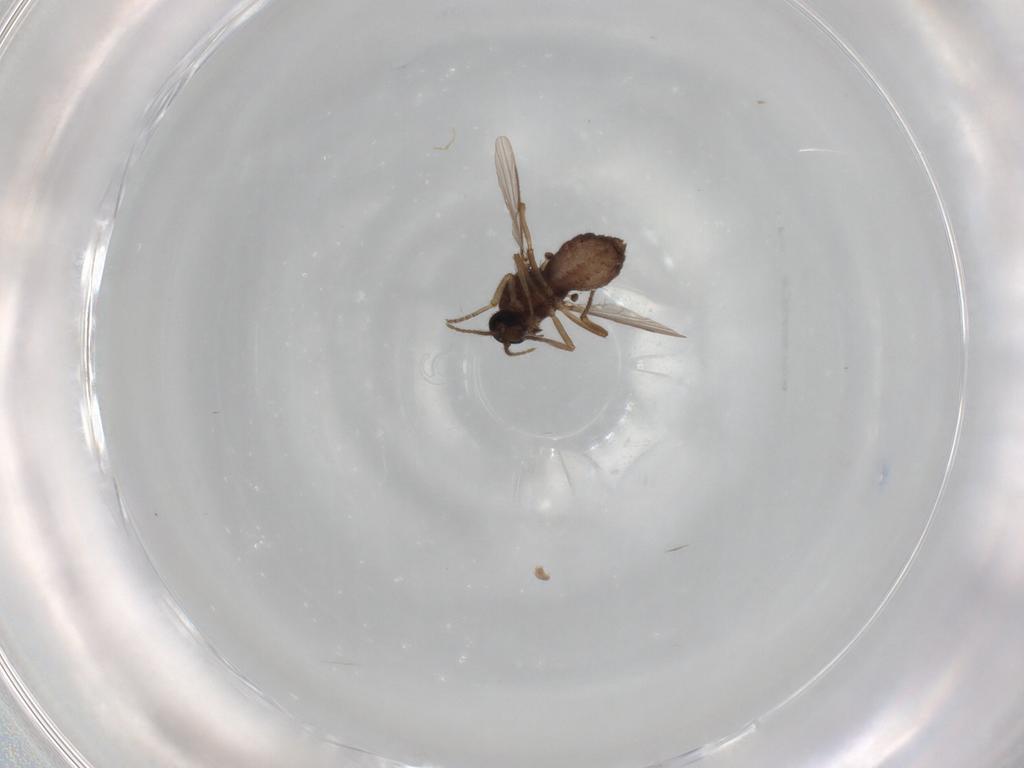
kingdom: Animalia
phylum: Arthropoda
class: Insecta
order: Diptera
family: Ceratopogonidae
